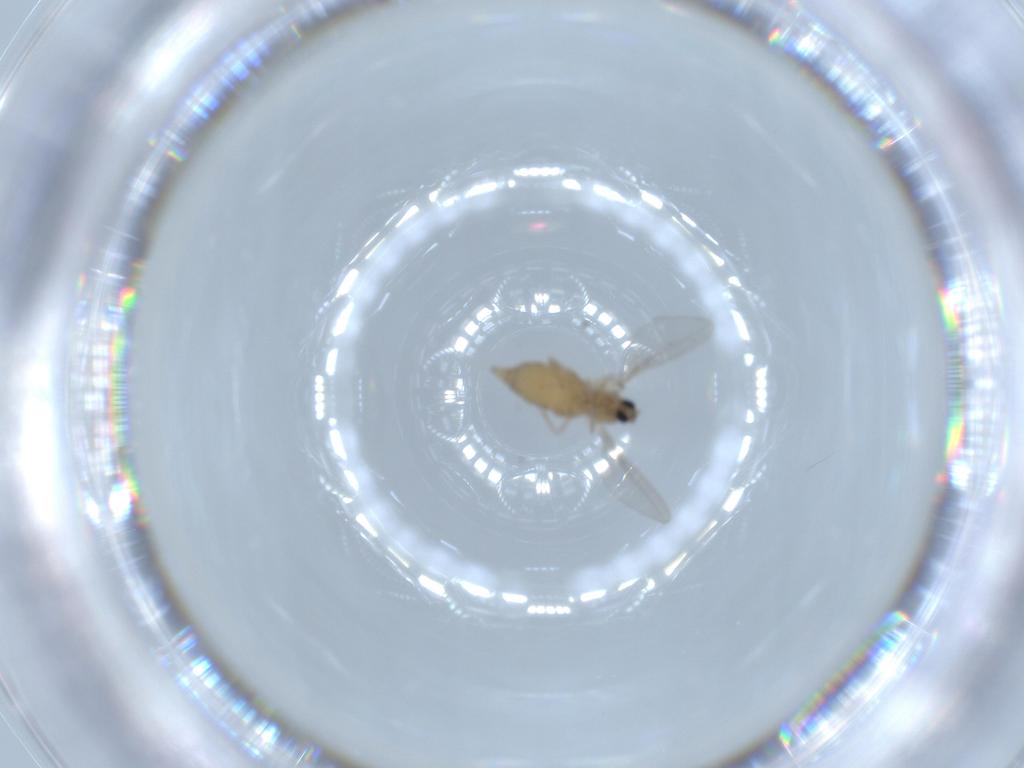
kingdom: Animalia
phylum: Arthropoda
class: Insecta
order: Diptera
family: Cecidomyiidae
